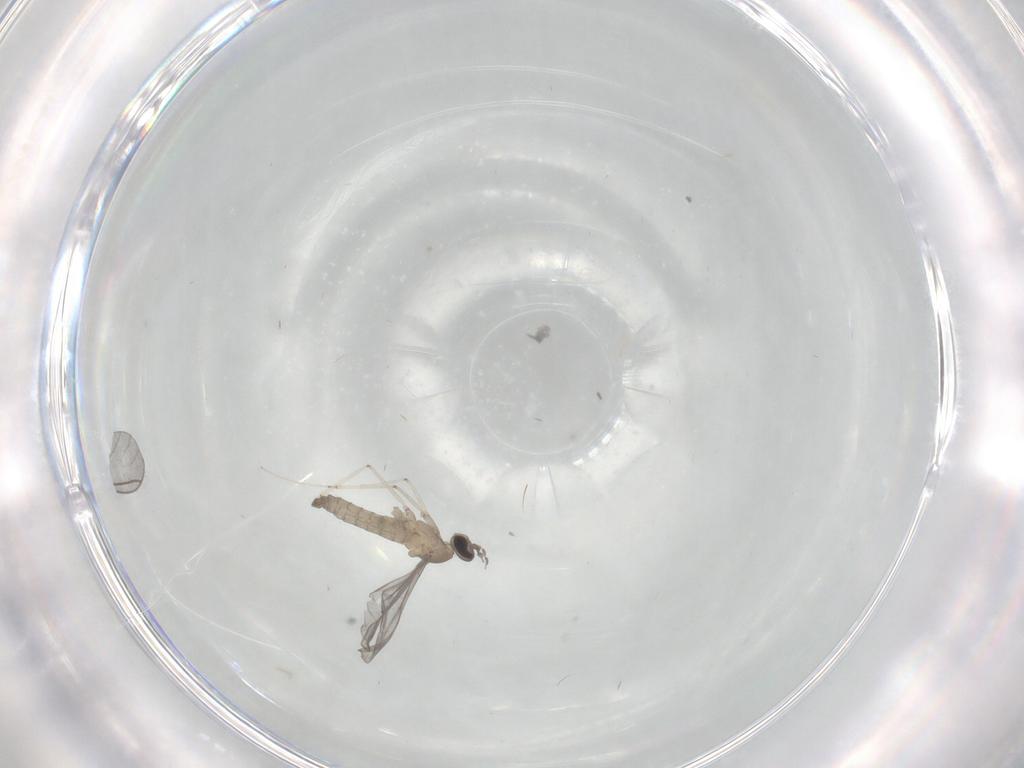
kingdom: Animalia
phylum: Arthropoda
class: Insecta
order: Diptera
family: Cecidomyiidae
